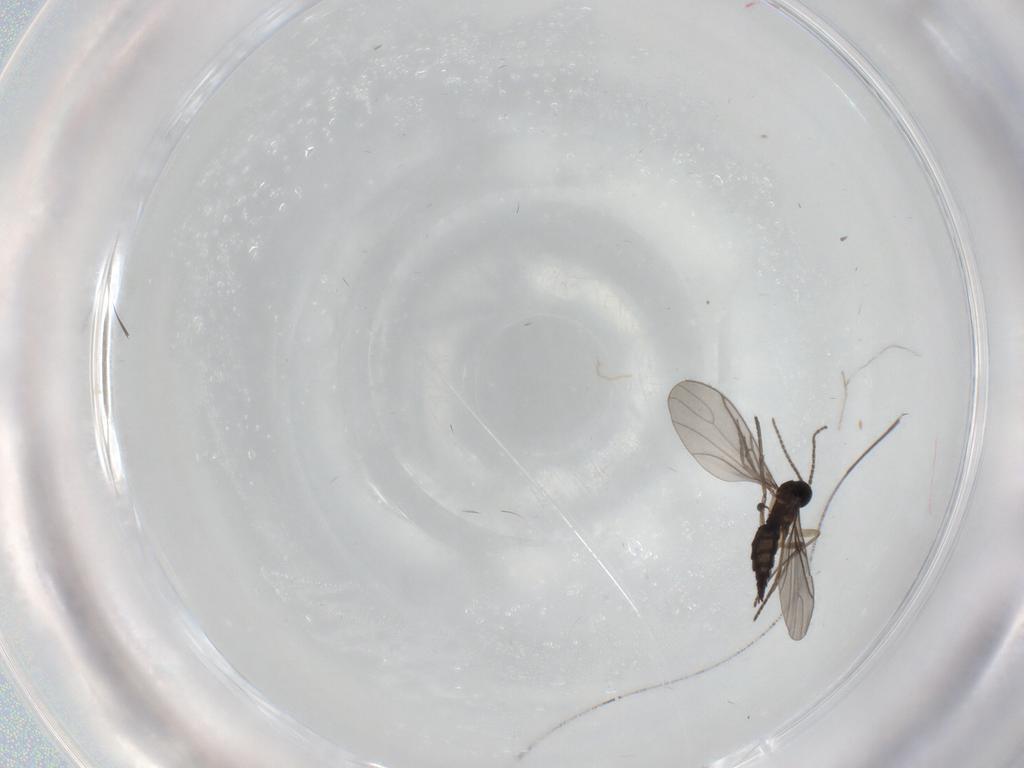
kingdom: Animalia
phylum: Arthropoda
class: Insecta
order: Diptera
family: Sciaridae
